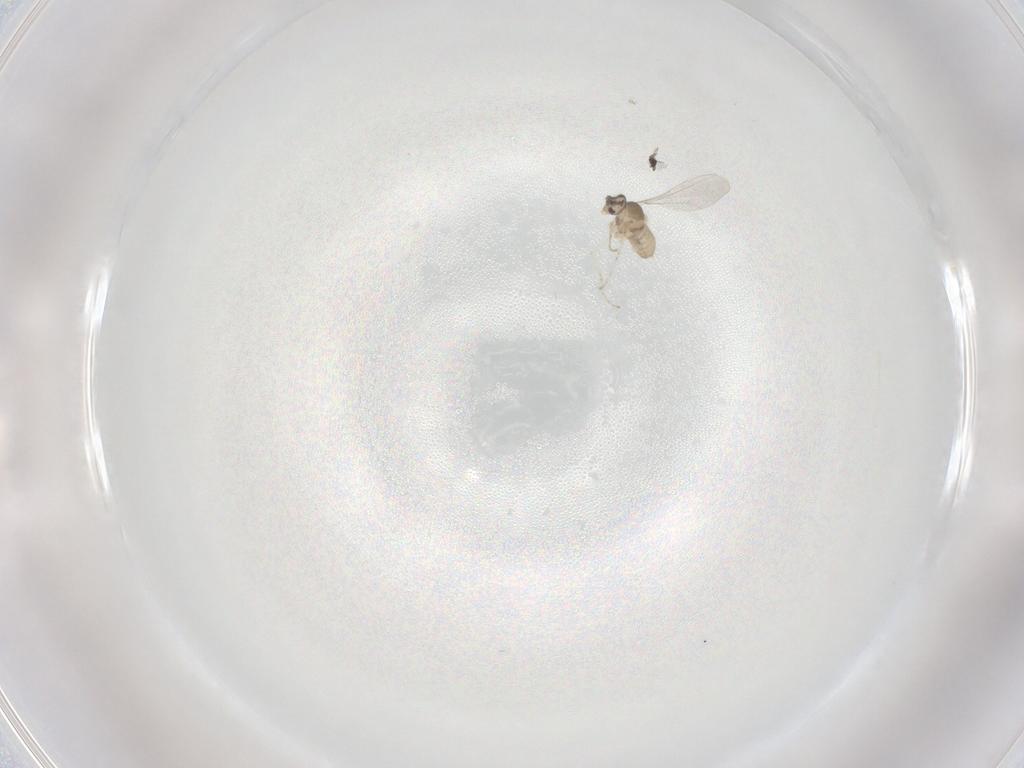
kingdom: Animalia
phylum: Arthropoda
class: Insecta
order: Diptera
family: Cecidomyiidae
